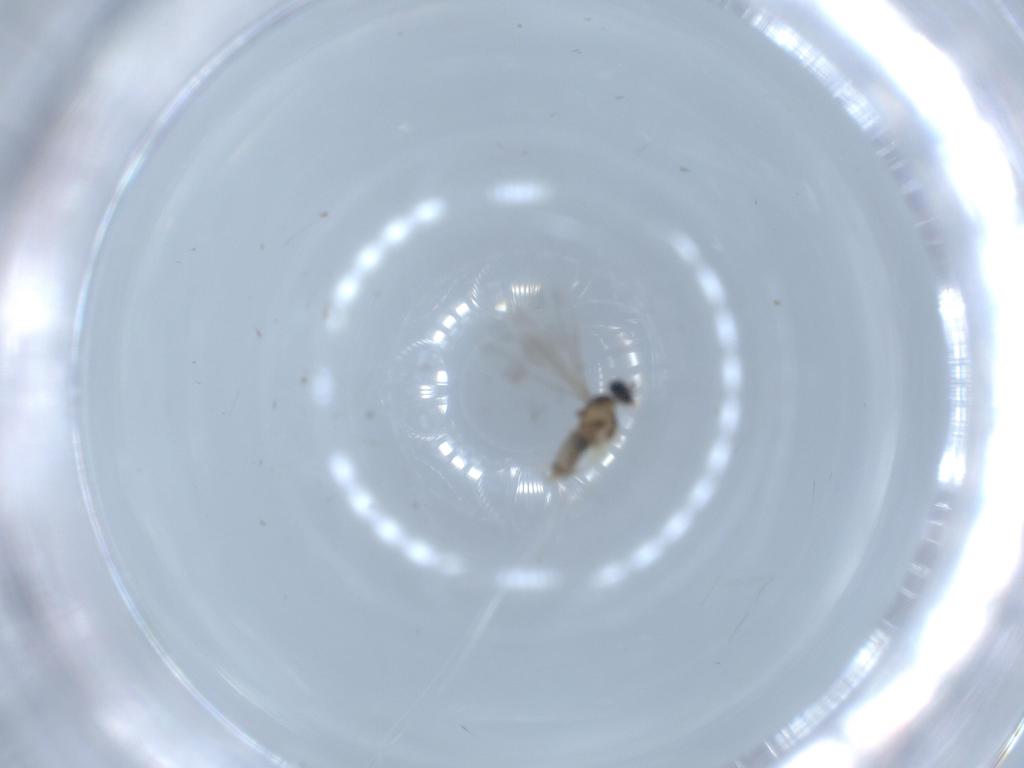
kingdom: Animalia
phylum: Arthropoda
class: Insecta
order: Diptera
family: Cecidomyiidae
